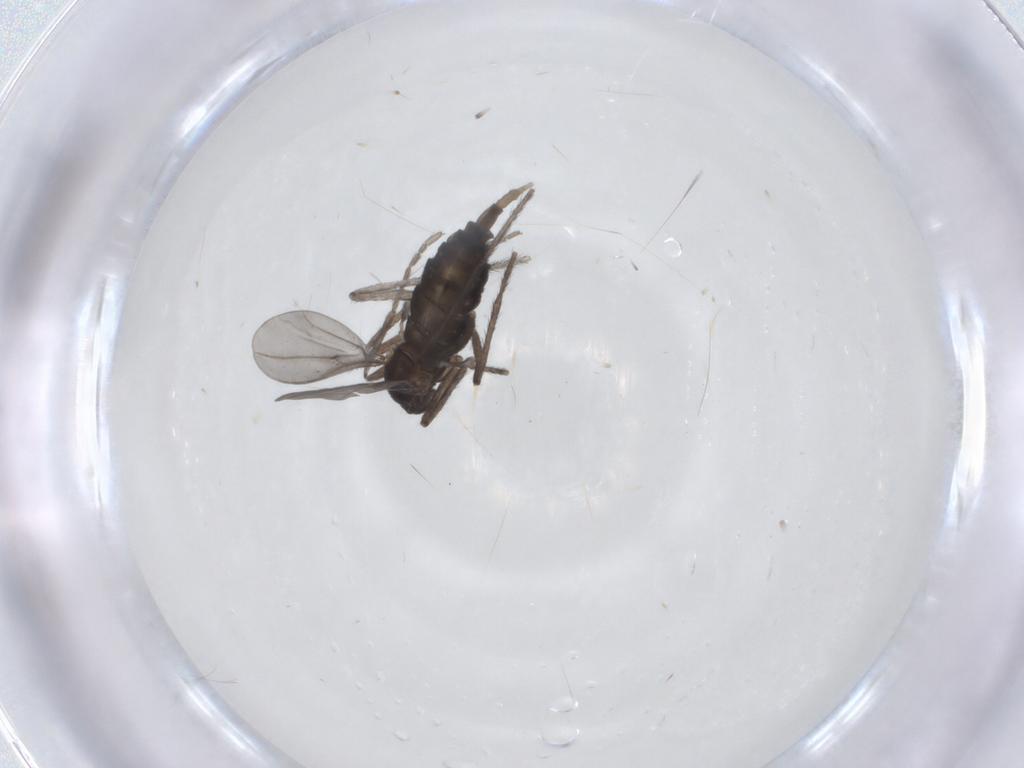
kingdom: Animalia
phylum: Arthropoda
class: Insecta
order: Diptera
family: Cecidomyiidae
